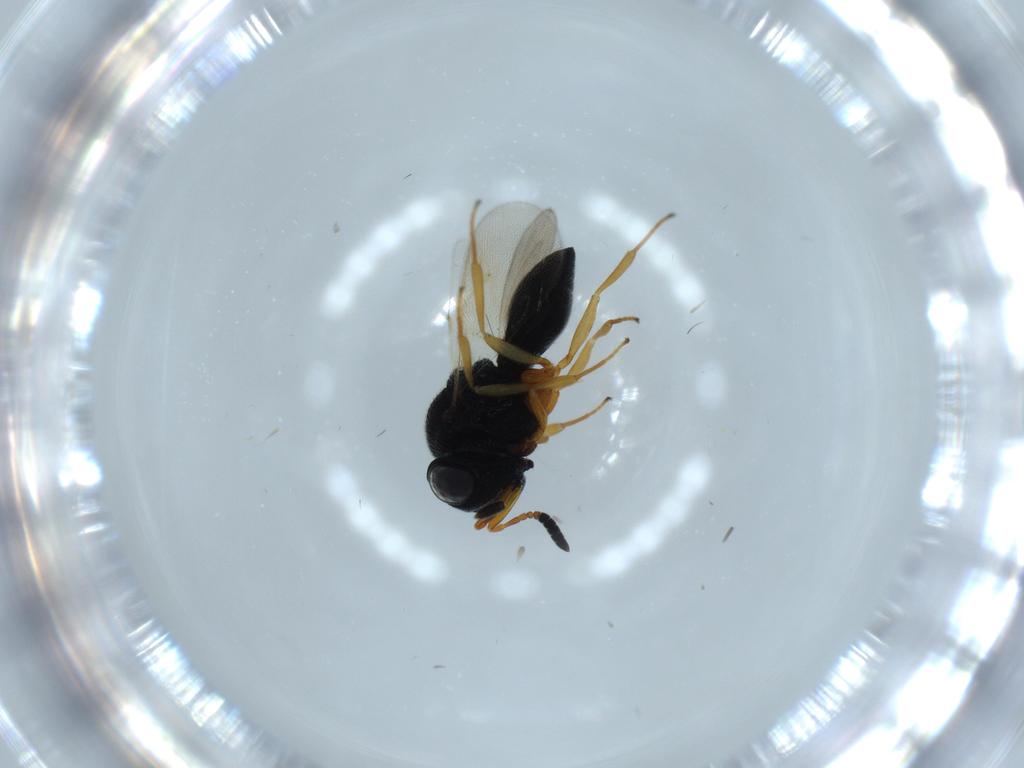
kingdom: Animalia
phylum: Arthropoda
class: Insecta
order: Hymenoptera
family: Scelionidae
